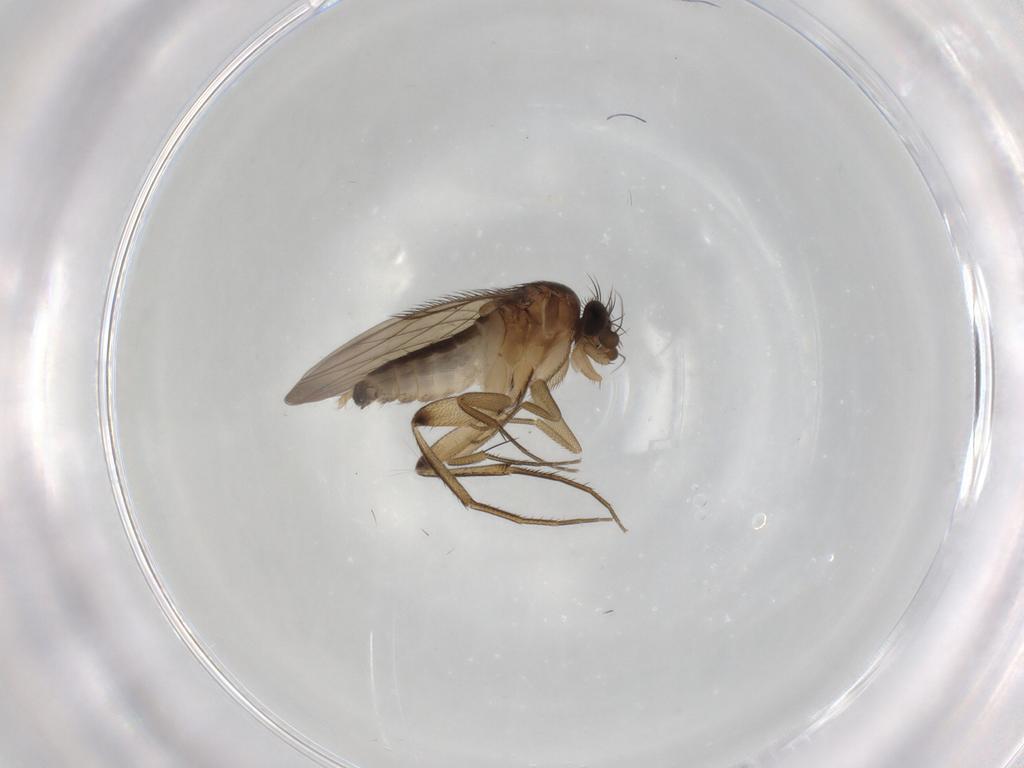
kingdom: Animalia
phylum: Arthropoda
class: Insecta
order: Diptera
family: Phoridae
